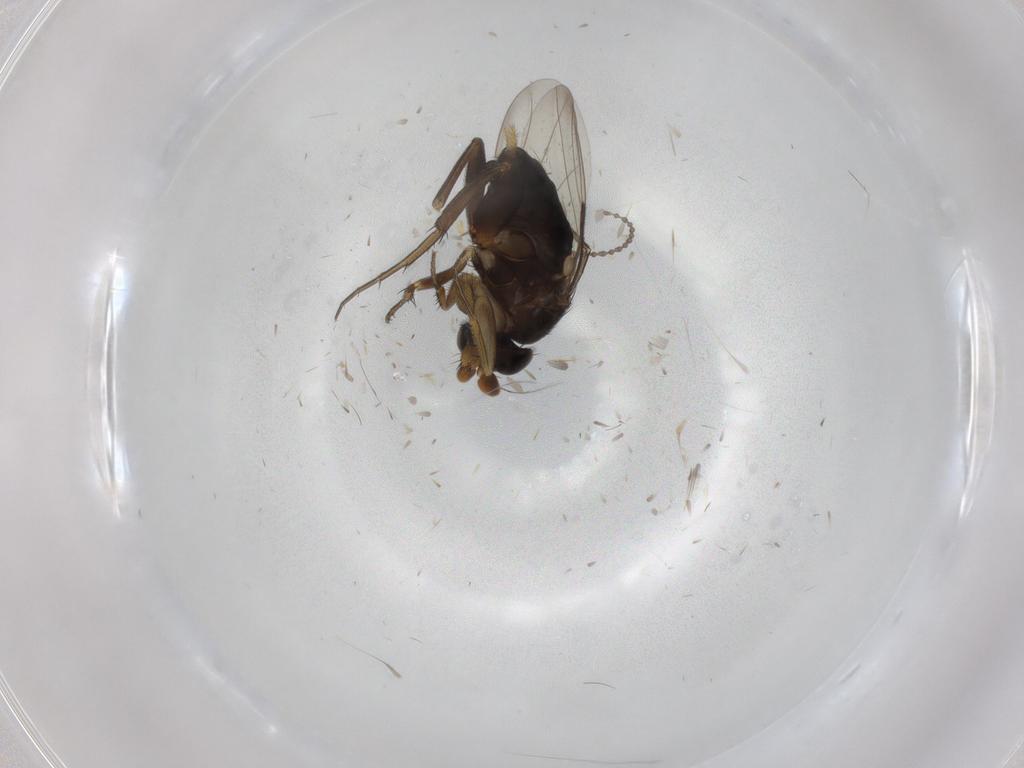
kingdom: Animalia
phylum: Arthropoda
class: Insecta
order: Diptera
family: Phoridae
